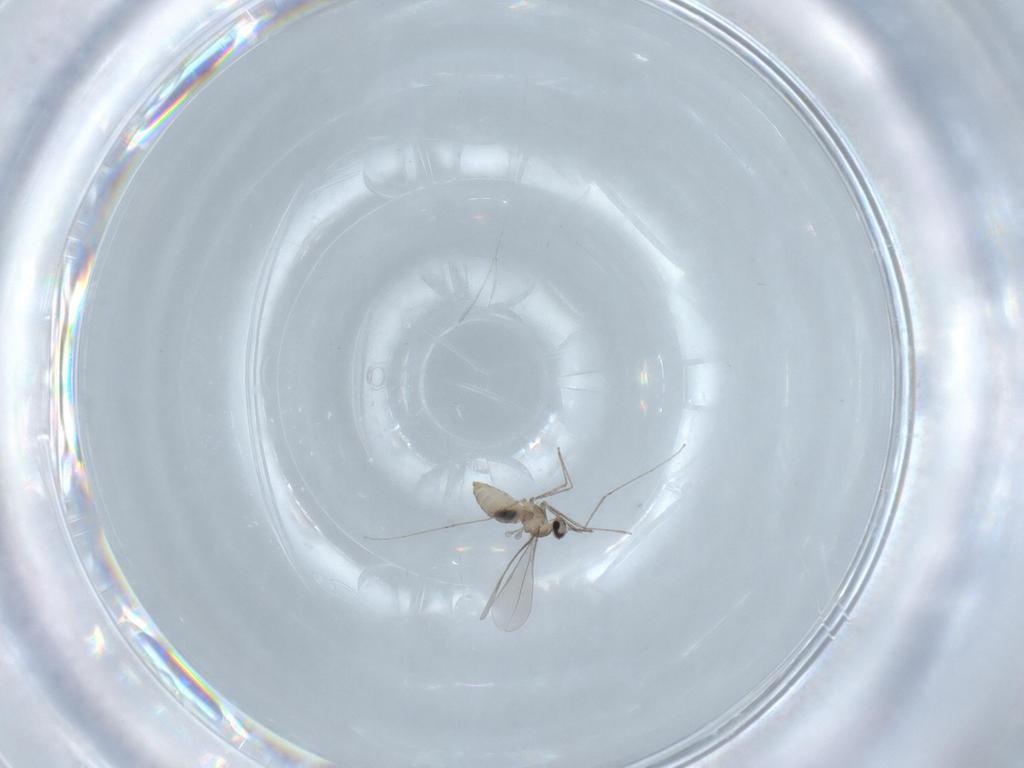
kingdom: Animalia
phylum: Arthropoda
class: Insecta
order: Diptera
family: Cecidomyiidae
